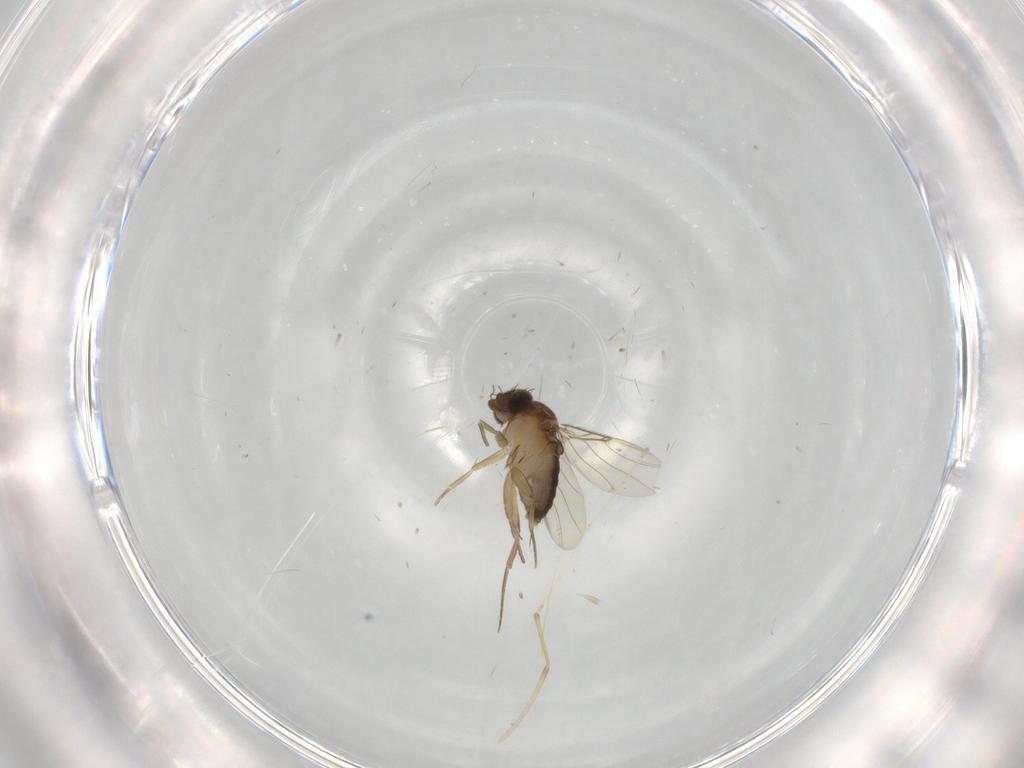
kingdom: Animalia
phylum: Arthropoda
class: Insecta
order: Diptera
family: Phoridae
